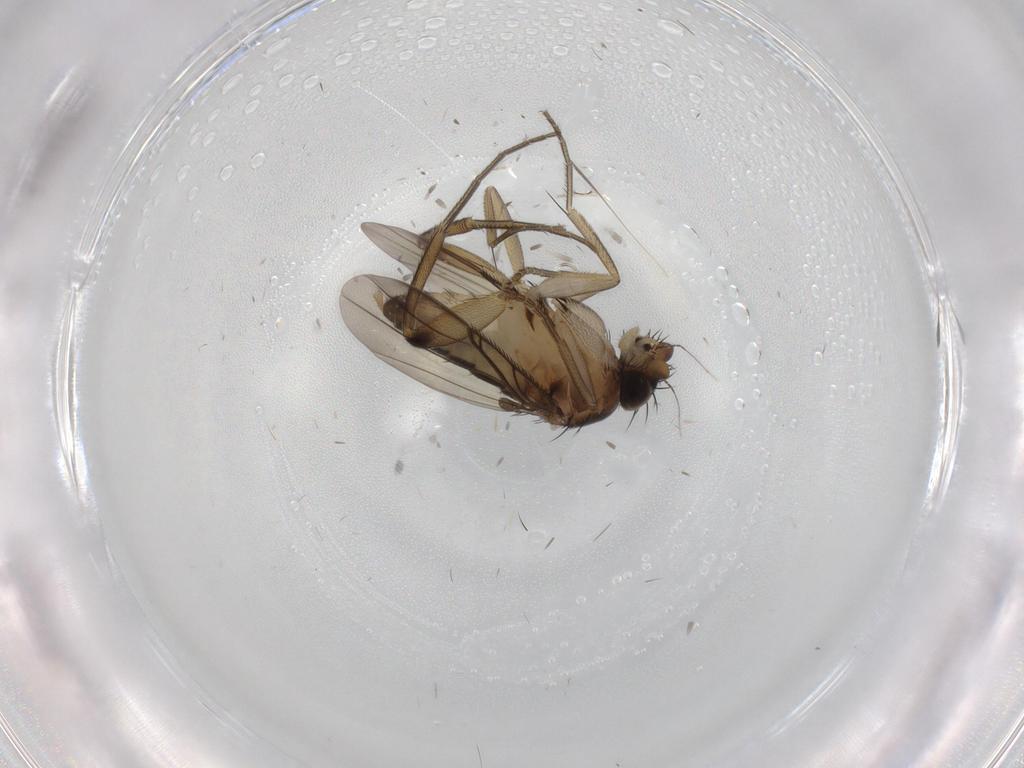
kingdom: Animalia
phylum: Arthropoda
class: Insecta
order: Diptera
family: Cecidomyiidae
